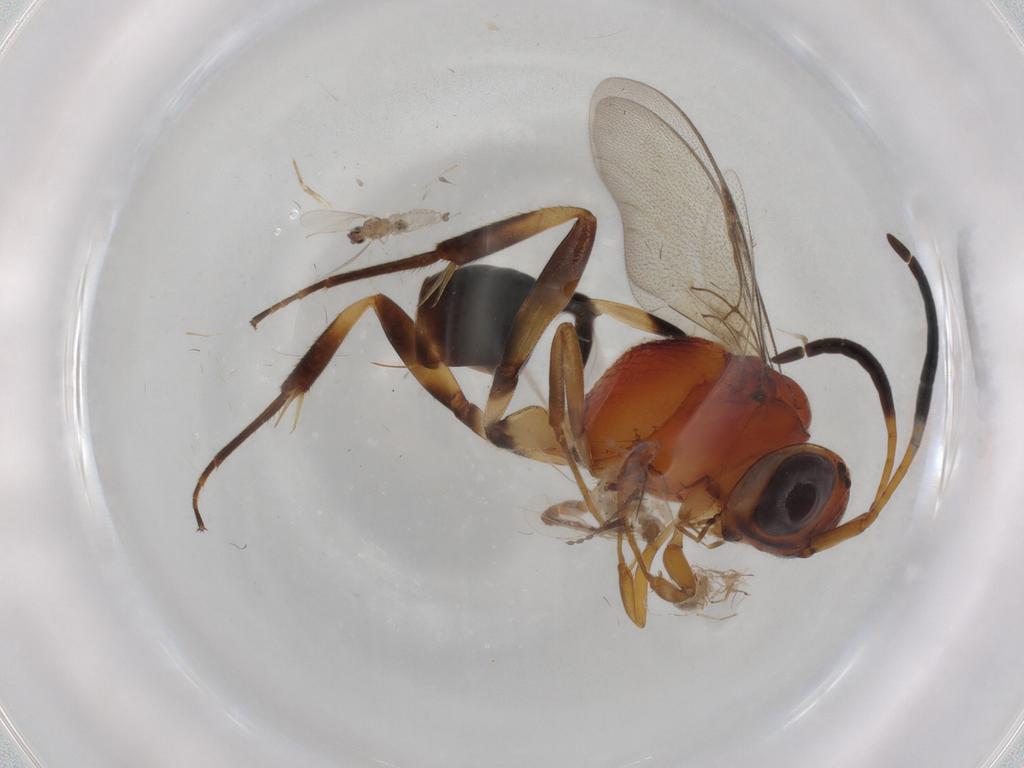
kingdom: Animalia
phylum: Arthropoda
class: Insecta
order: Hymenoptera
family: Evaniidae
